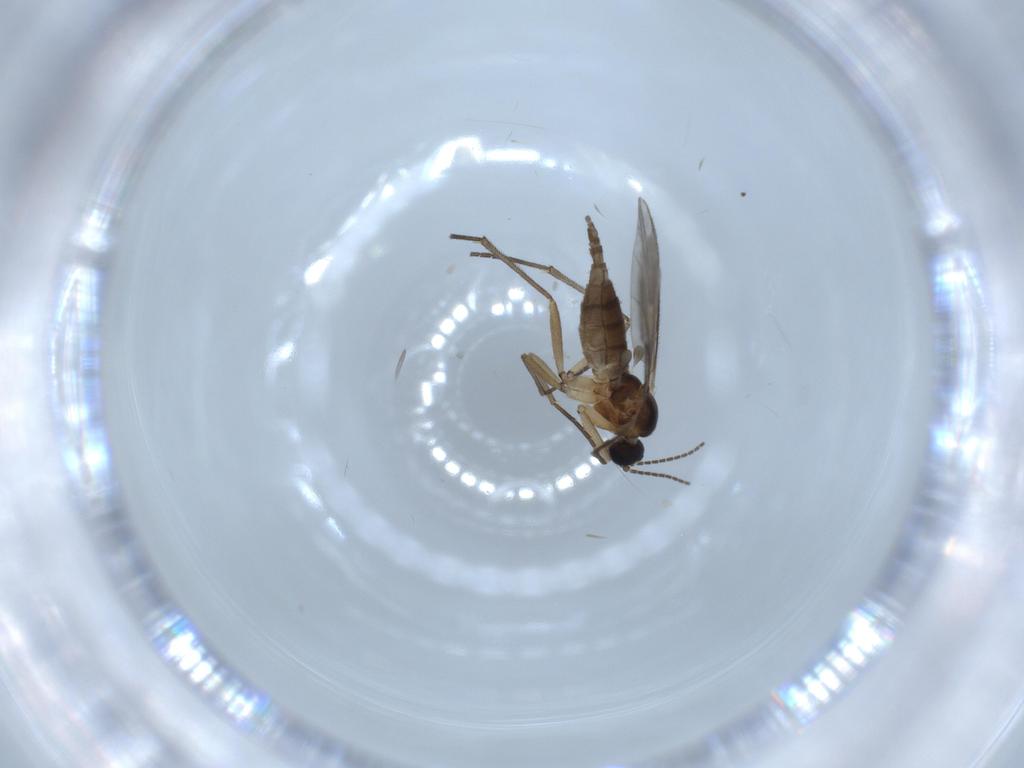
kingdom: Animalia
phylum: Arthropoda
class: Insecta
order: Diptera
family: Sciaridae
